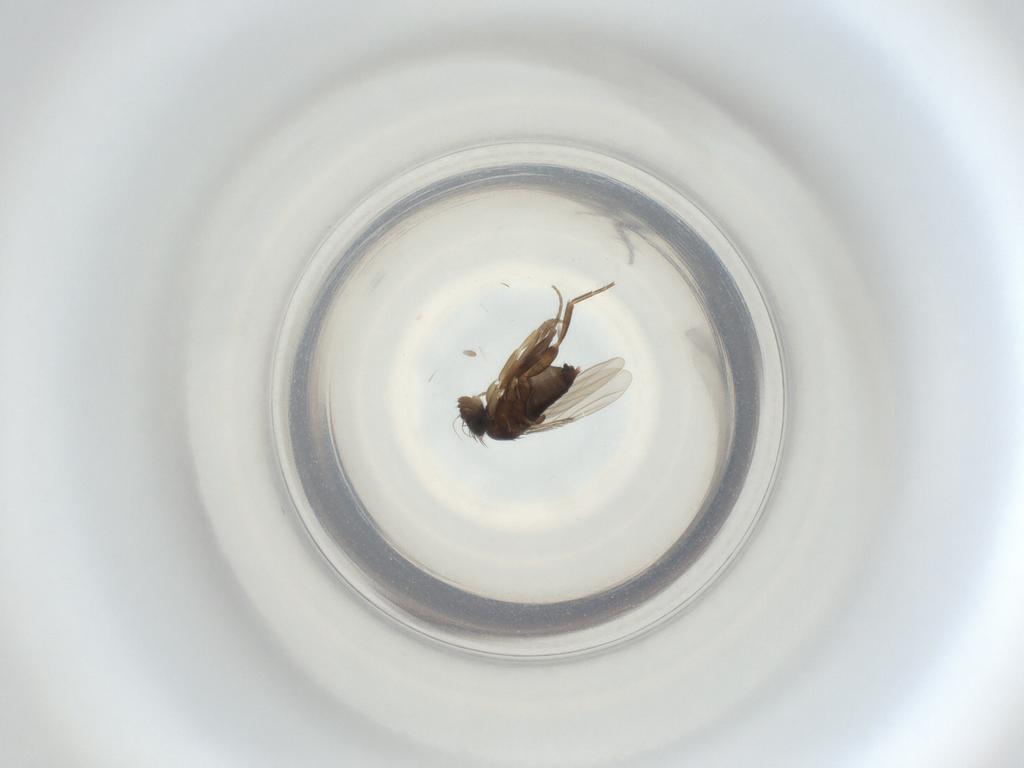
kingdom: Animalia
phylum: Arthropoda
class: Insecta
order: Diptera
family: Phoridae
